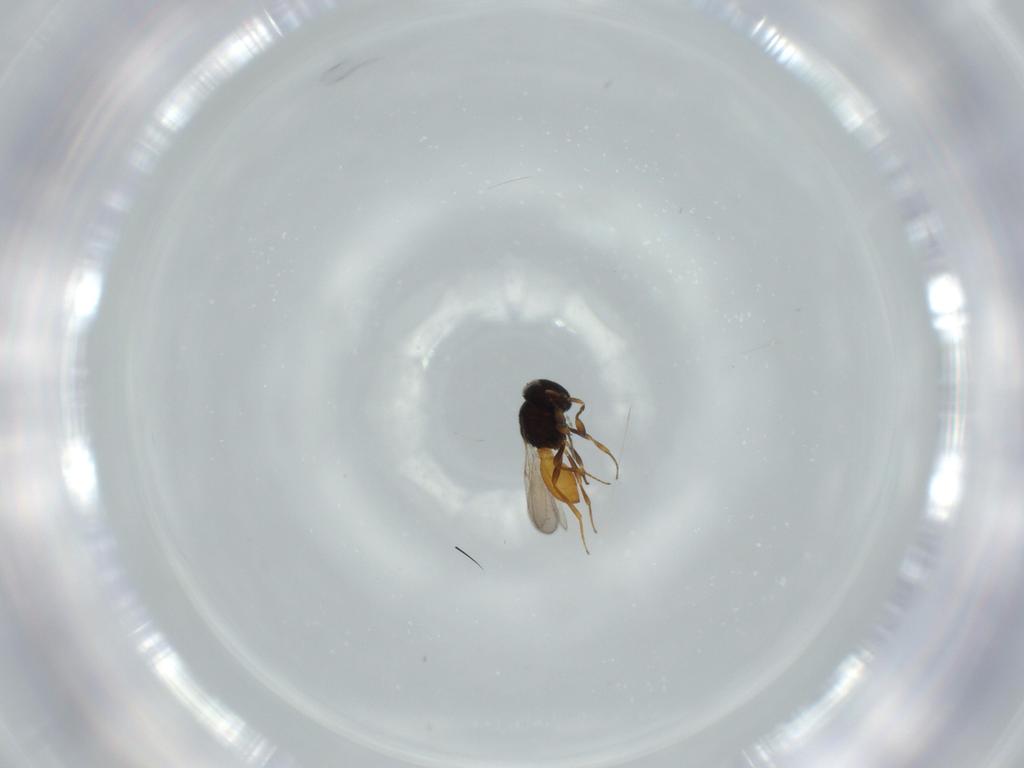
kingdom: Animalia
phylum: Arthropoda
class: Insecta
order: Hymenoptera
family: Scelionidae
